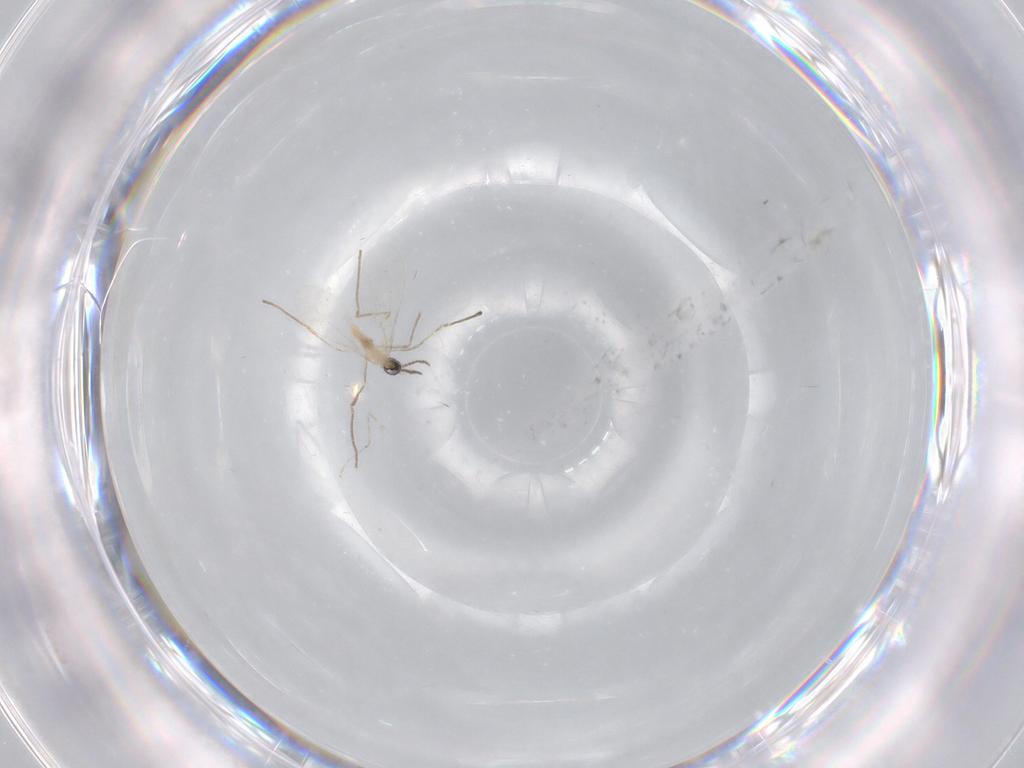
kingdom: Animalia
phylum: Arthropoda
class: Insecta
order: Diptera
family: Cecidomyiidae
